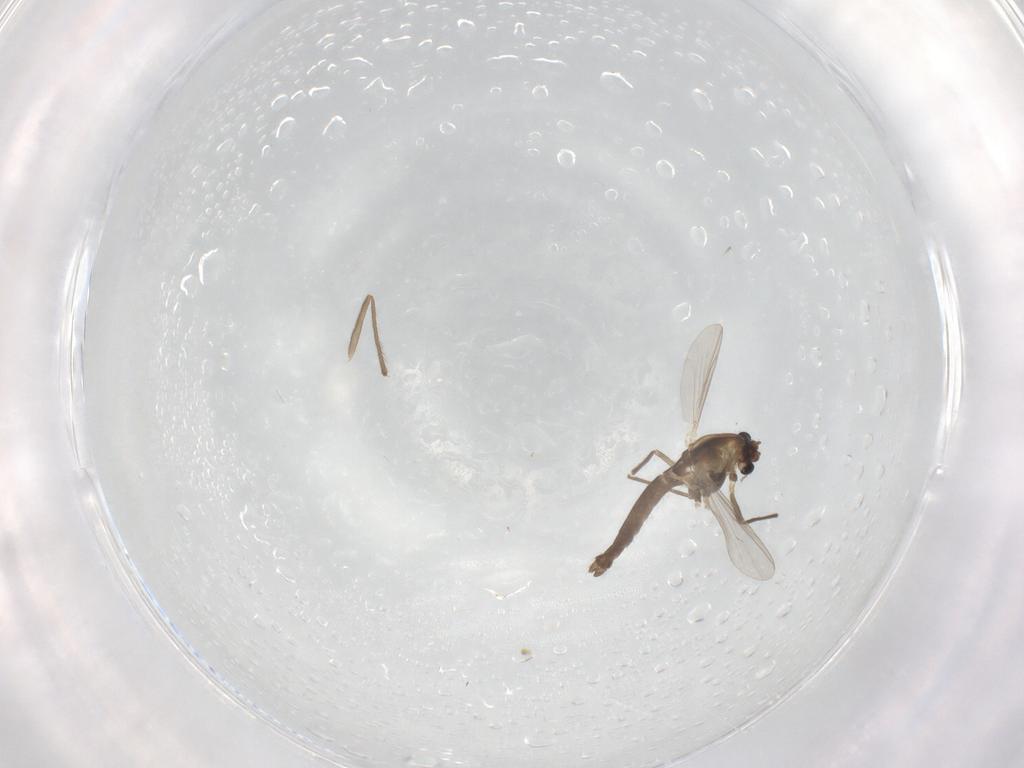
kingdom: Animalia
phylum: Arthropoda
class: Insecta
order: Diptera
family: Chironomidae
